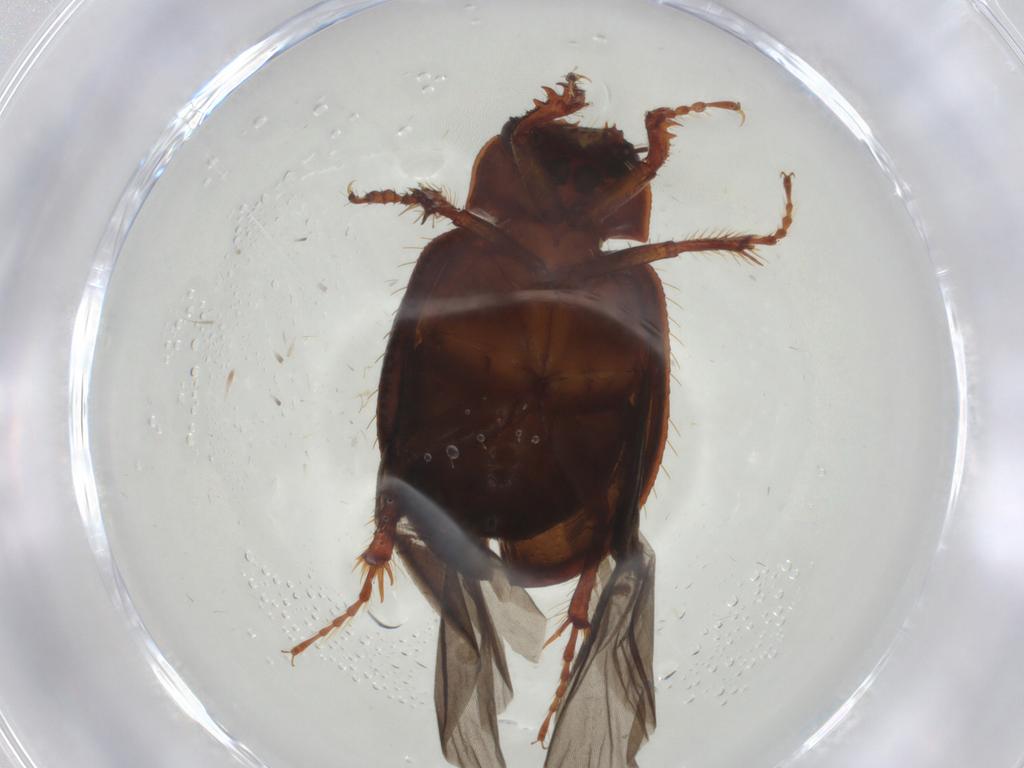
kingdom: Animalia
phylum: Arthropoda
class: Insecta
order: Coleoptera
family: Hybosoridae
